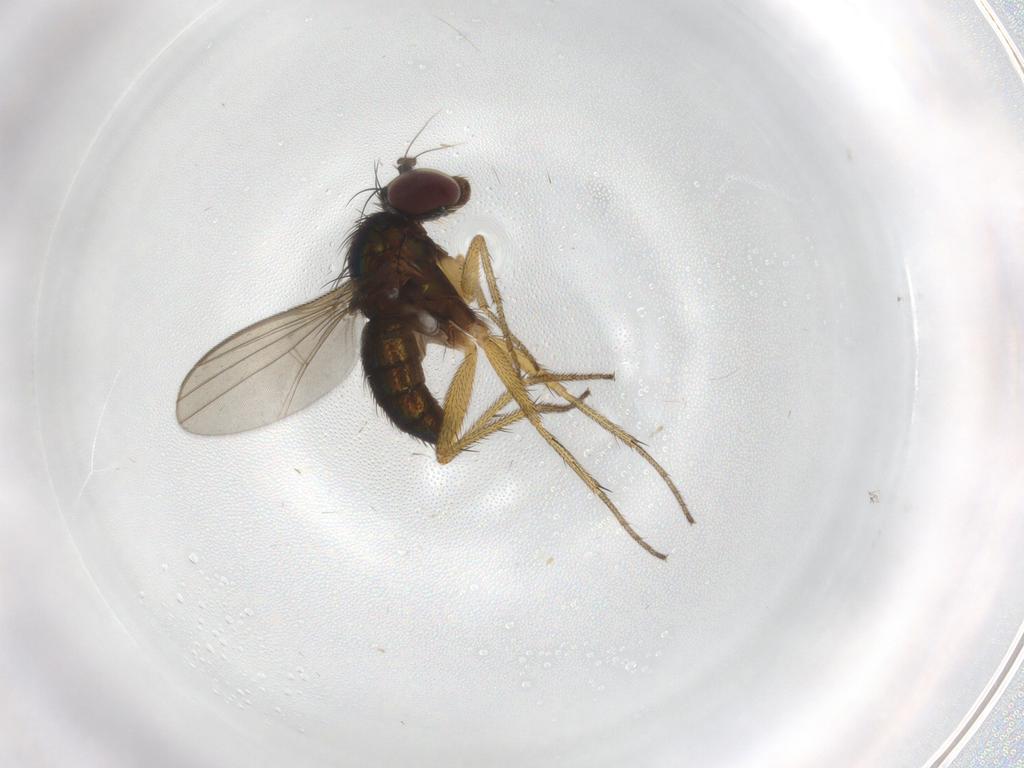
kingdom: Animalia
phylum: Arthropoda
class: Insecta
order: Diptera
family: Dolichopodidae
